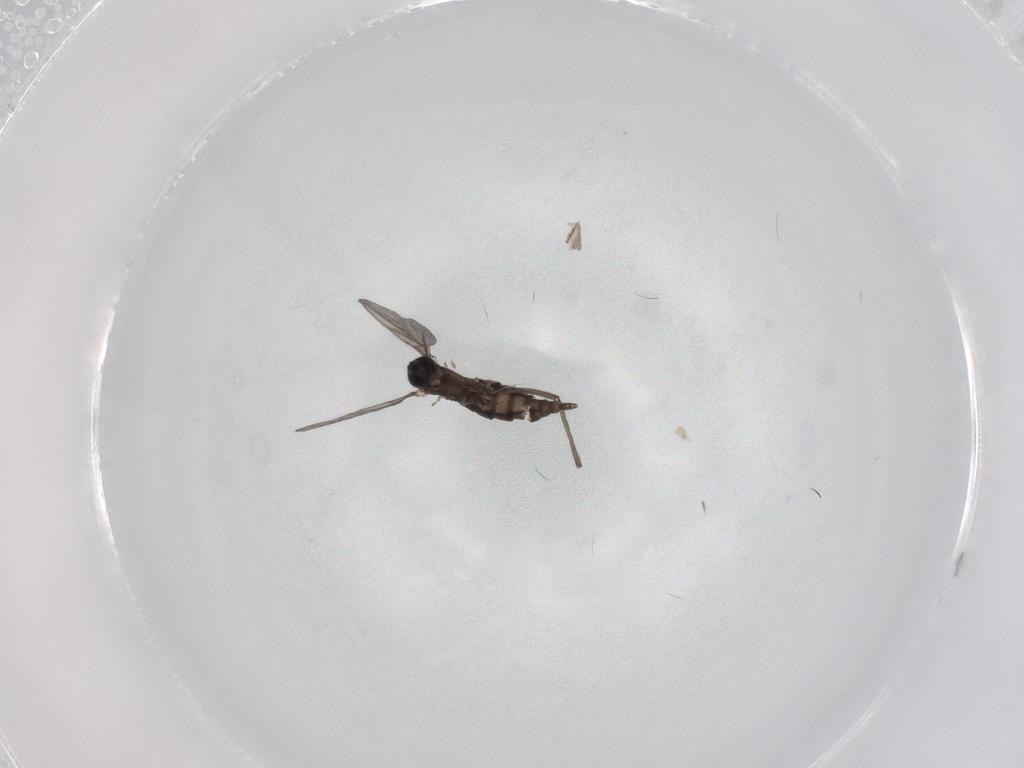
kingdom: Animalia
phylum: Arthropoda
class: Insecta
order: Diptera
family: Sciaridae
